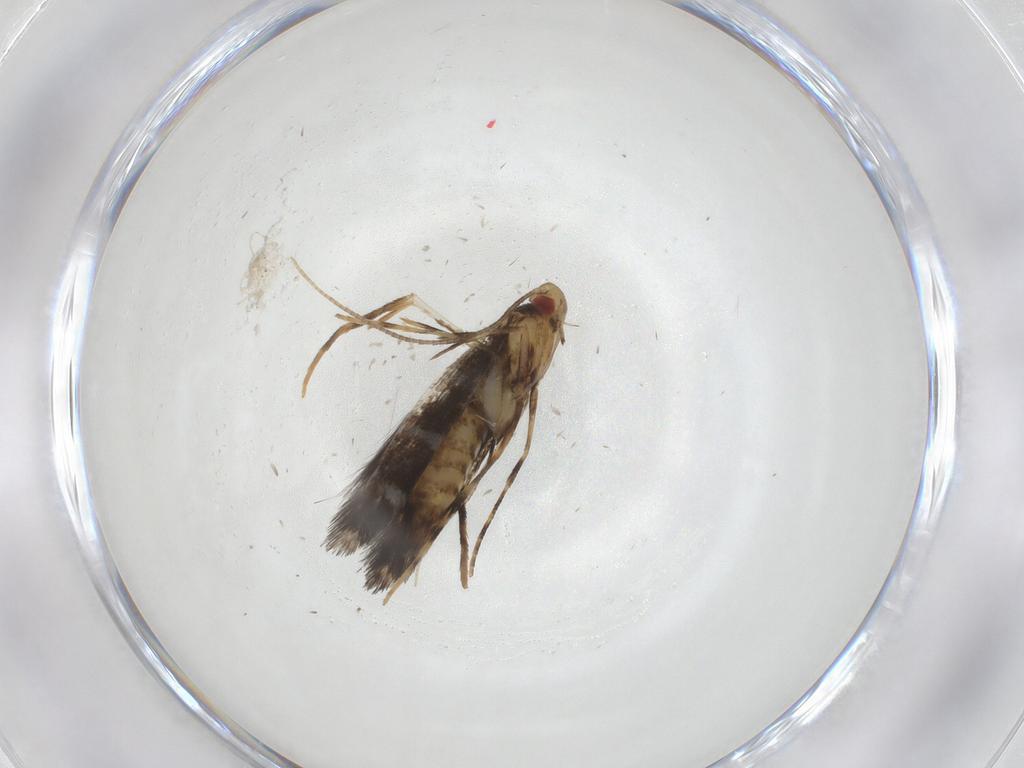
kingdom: Animalia
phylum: Arthropoda
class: Insecta
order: Lepidoptera
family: Gracillariidae
